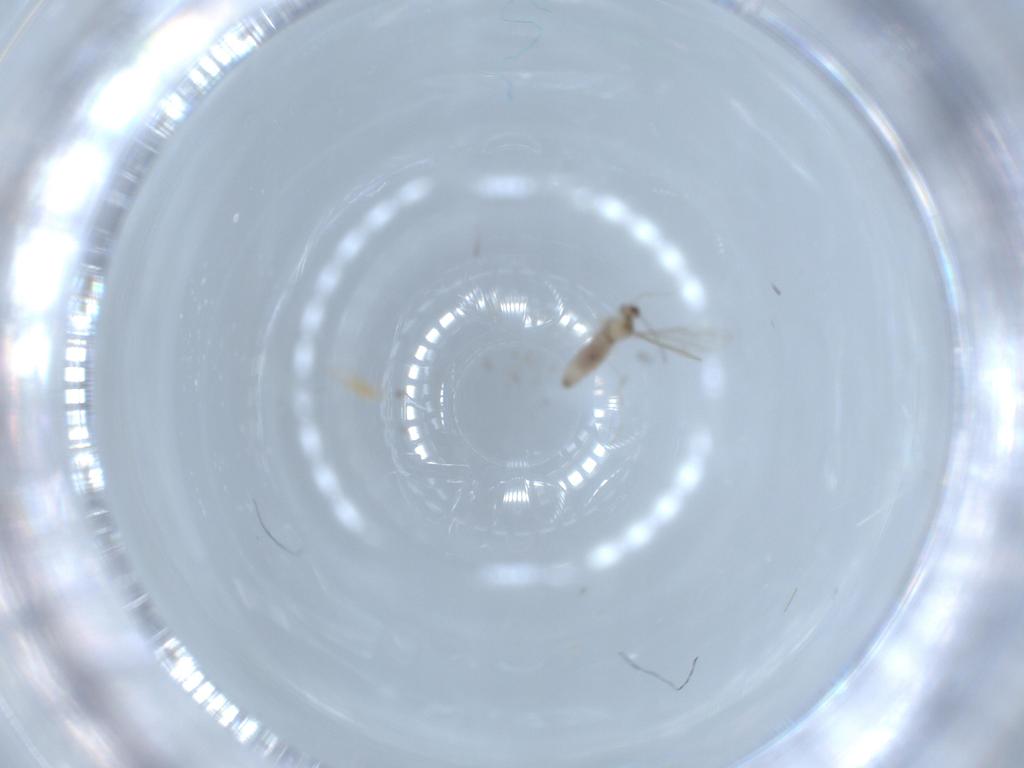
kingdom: Animalia
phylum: Arthropoda
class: Insecta
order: Diptera
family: Cecidomyiidae
